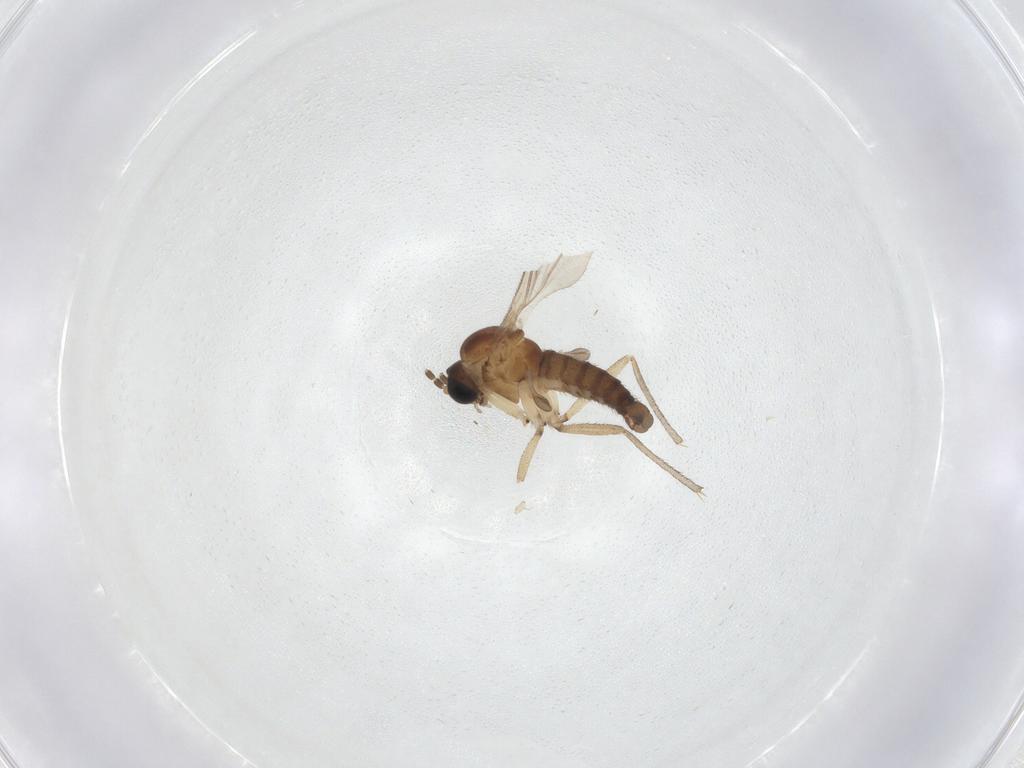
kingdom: Animalia
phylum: Arthropoda
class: Insecta
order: Diptera
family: Sciaridae
